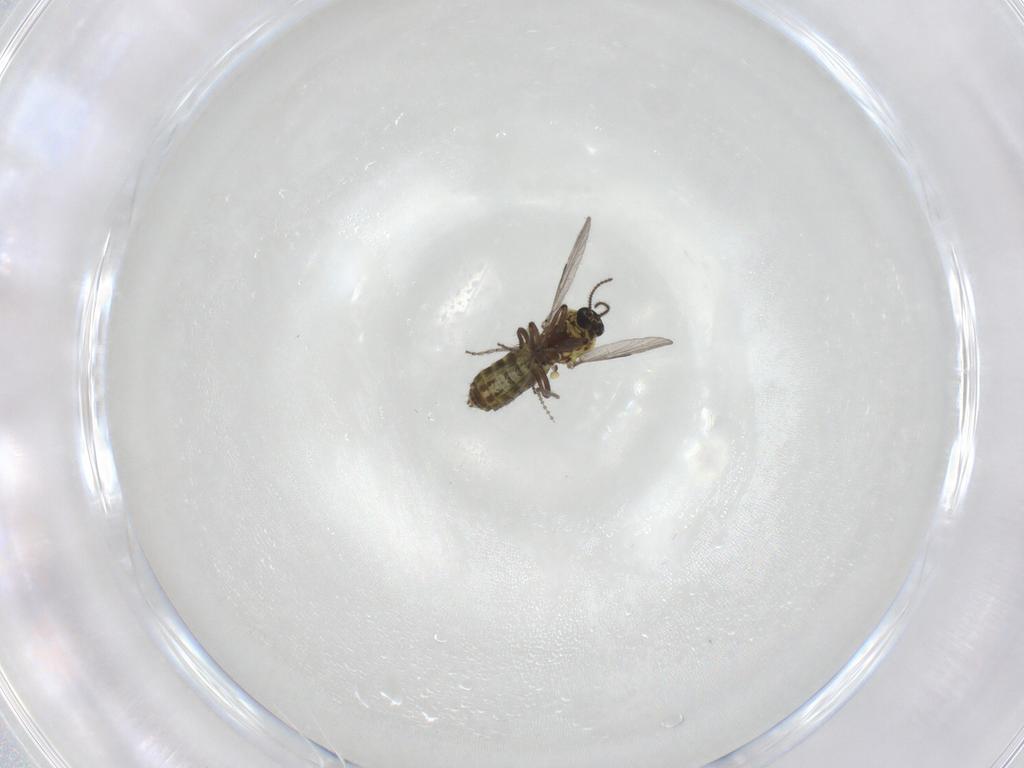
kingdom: Animalia
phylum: Arthropoda
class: Insecta
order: Diptera
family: Ceratopogonidae
